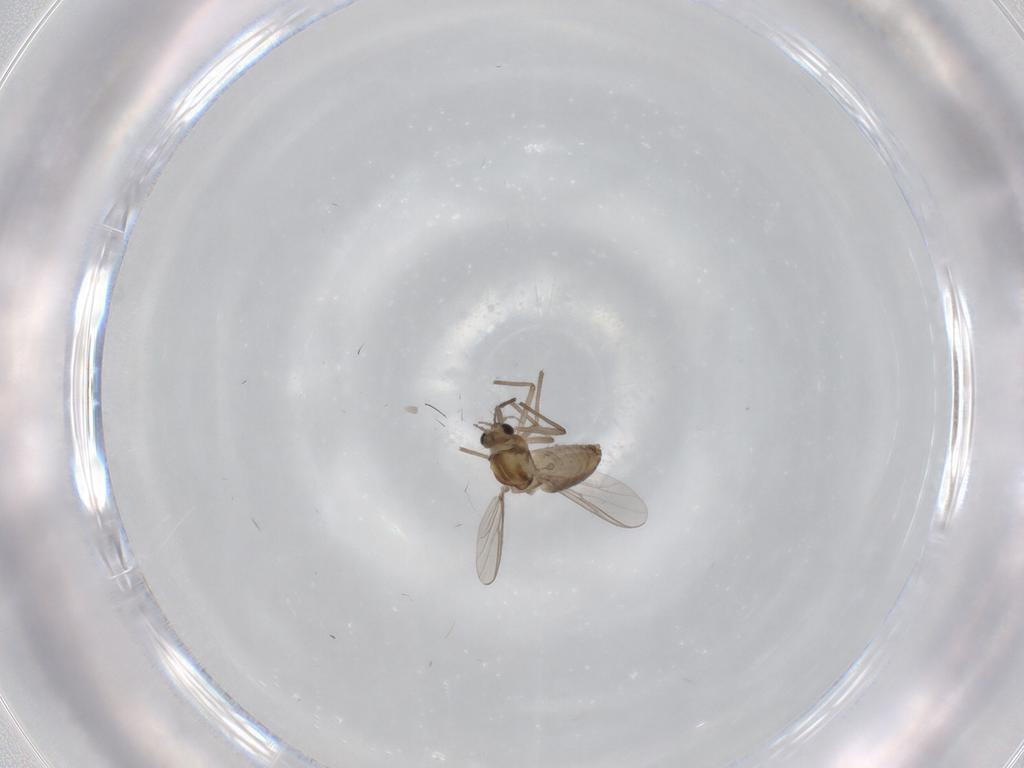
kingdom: Animalia
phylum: Arthropoda
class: Insecta
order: Diptera
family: Chironomidae
